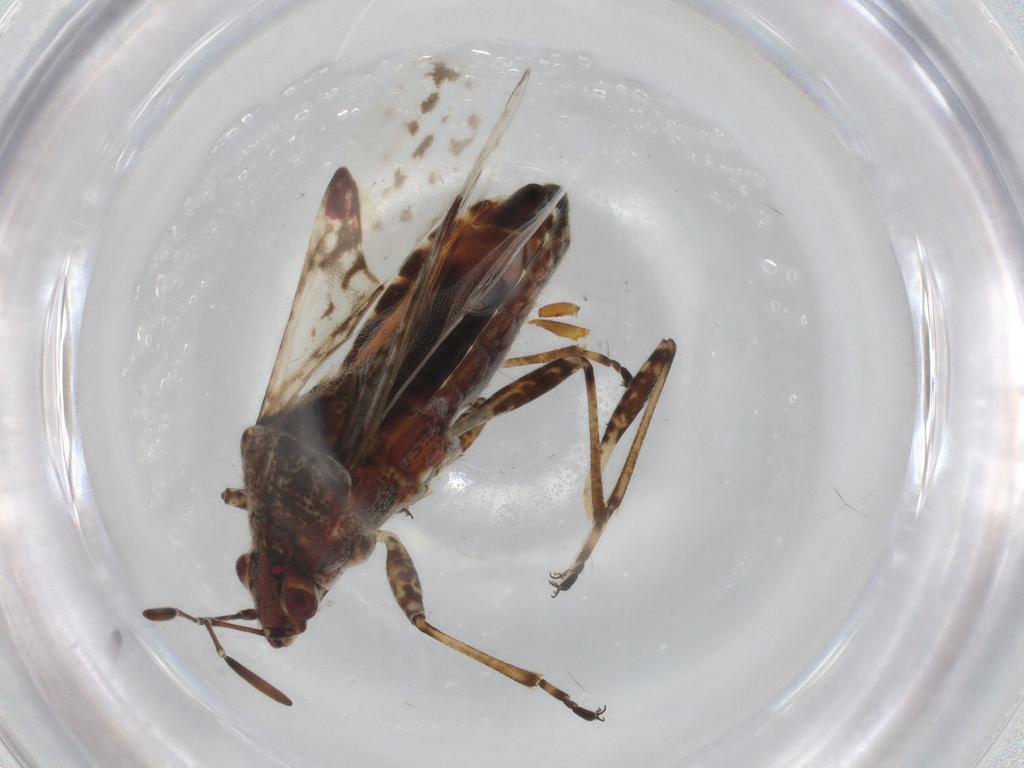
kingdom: Animalia
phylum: Arthropoda
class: Insecta
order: Hemiptera
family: Lygaeidae
